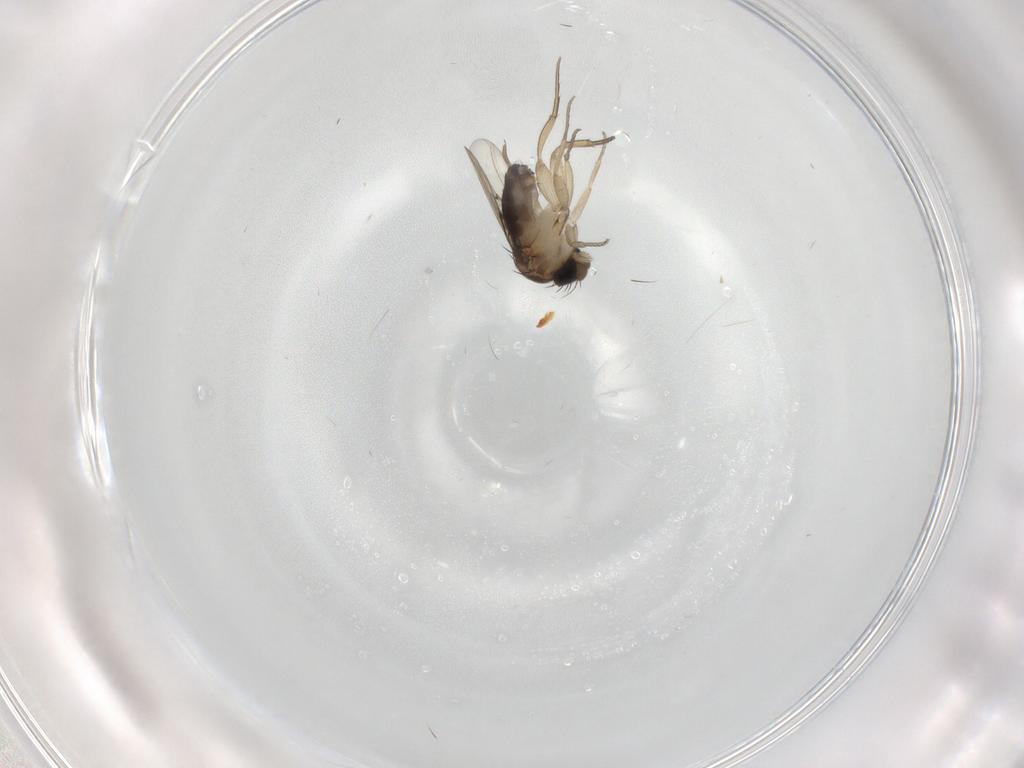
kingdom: Animalia
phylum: Arthropoda
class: Insecta
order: Diptera
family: Phoridae
